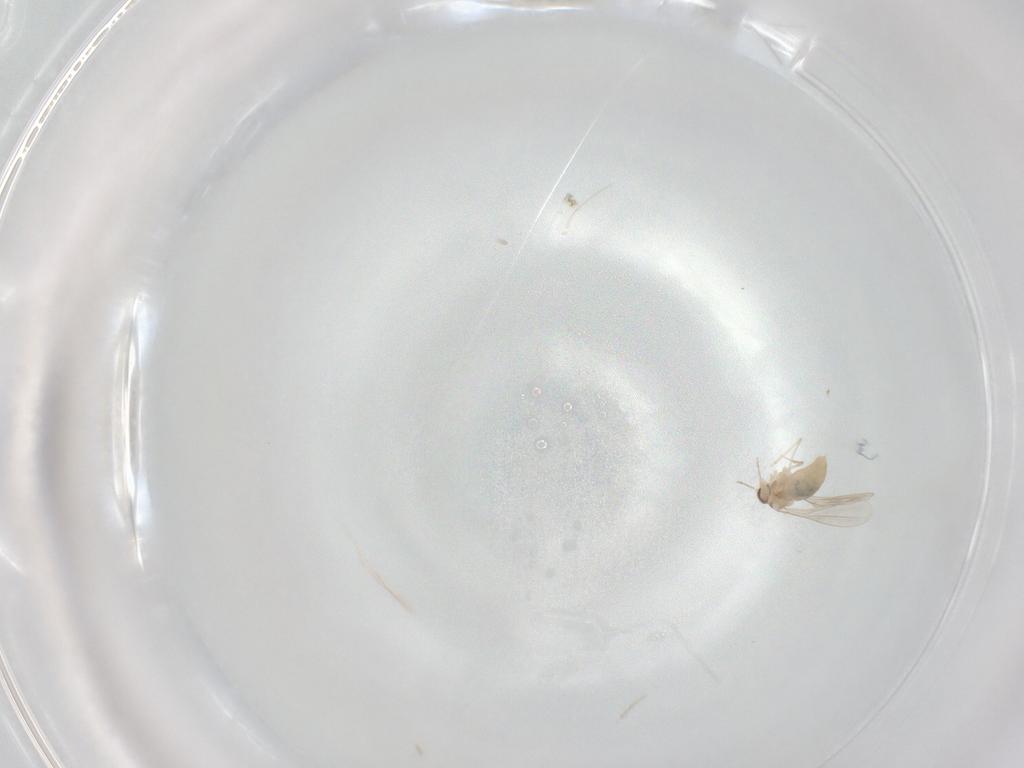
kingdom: Animalia
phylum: Arthropoda
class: Insecta
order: Diptera
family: Cecidomyiidae
